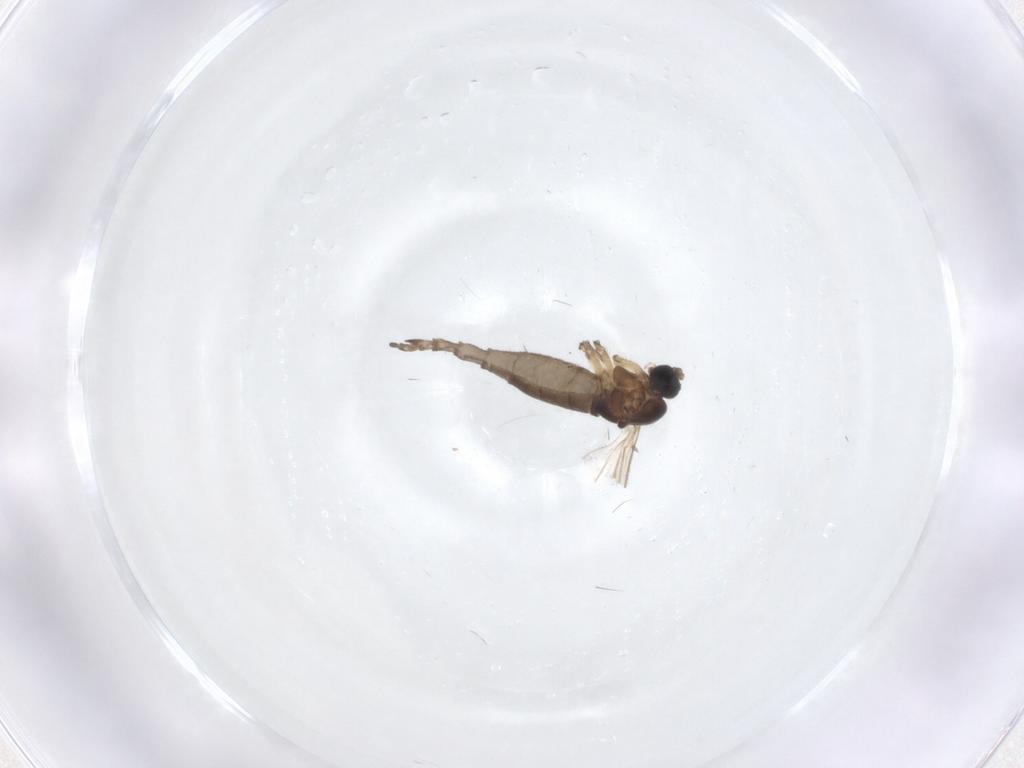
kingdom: Animalia
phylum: Arthropoda
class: Insecta
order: Diptera
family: Sciaridae
